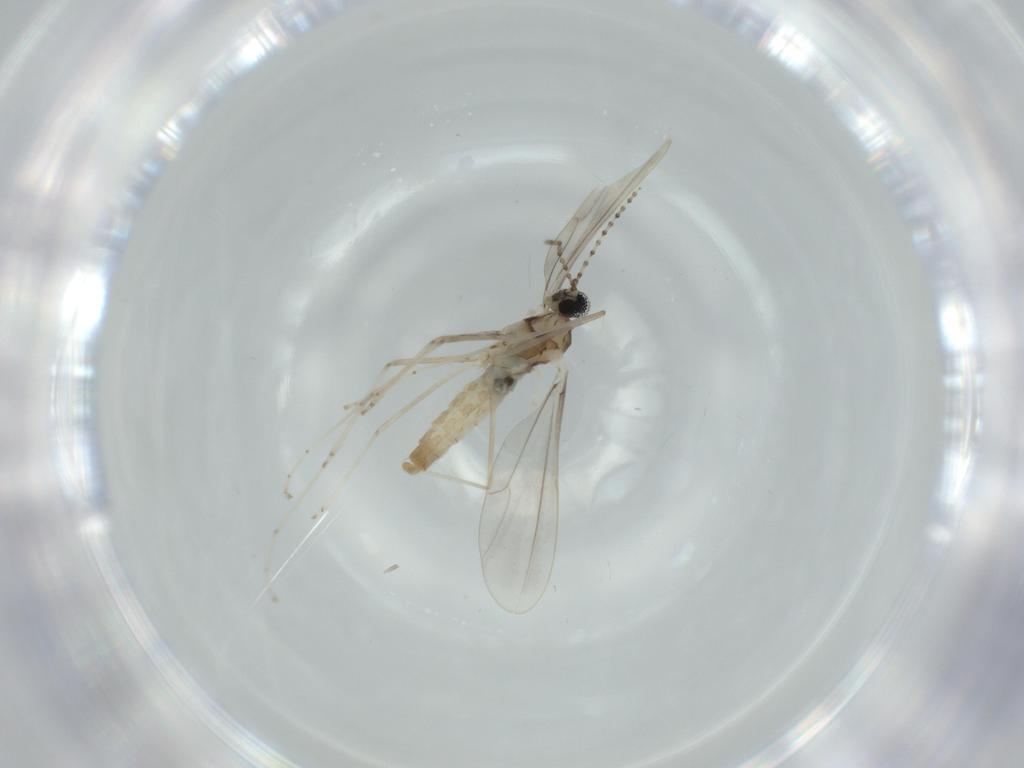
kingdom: Animalia
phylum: Arthropoda
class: Insecta
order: Diptera
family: Cecidomyiidae
